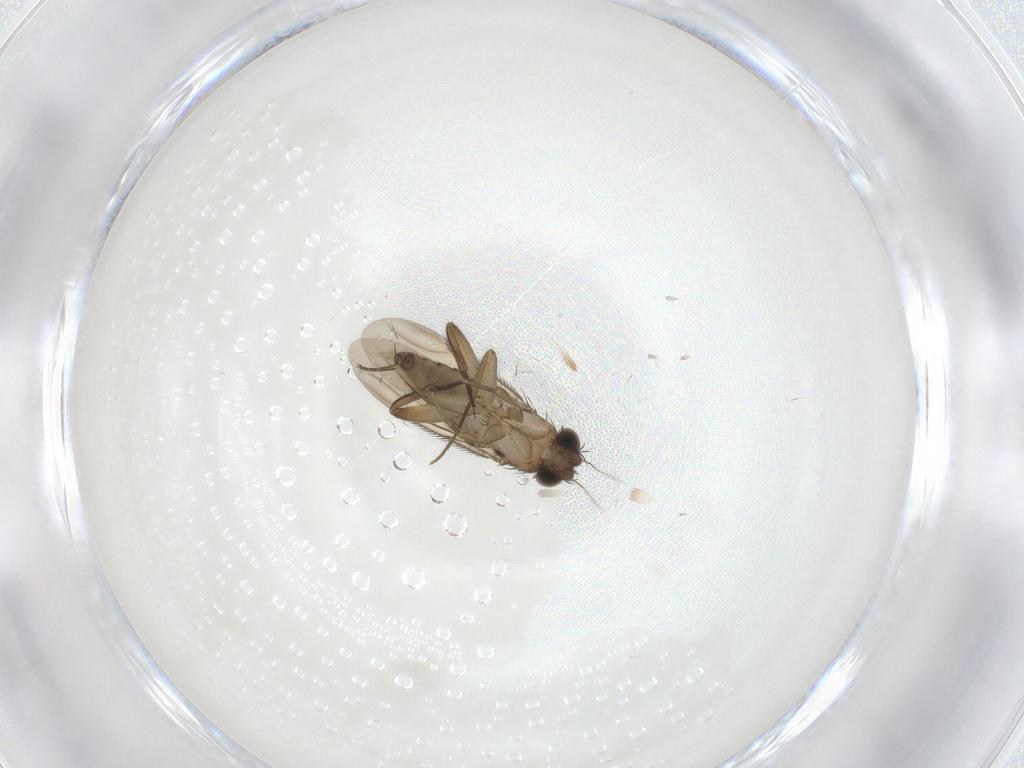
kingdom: Animalia
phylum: Arthropoda
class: Insecta
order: Diptera
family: Phoridae
